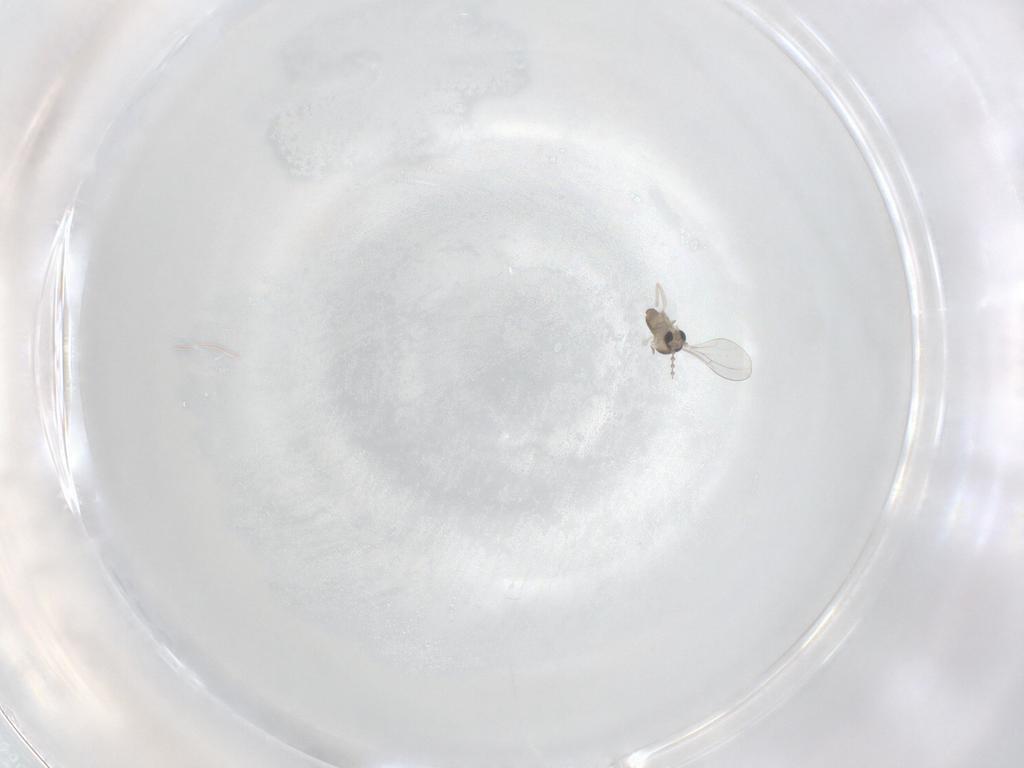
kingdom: Animalia
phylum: Arthropoda
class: Insecta
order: Diptera
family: Cecidomyiidae
